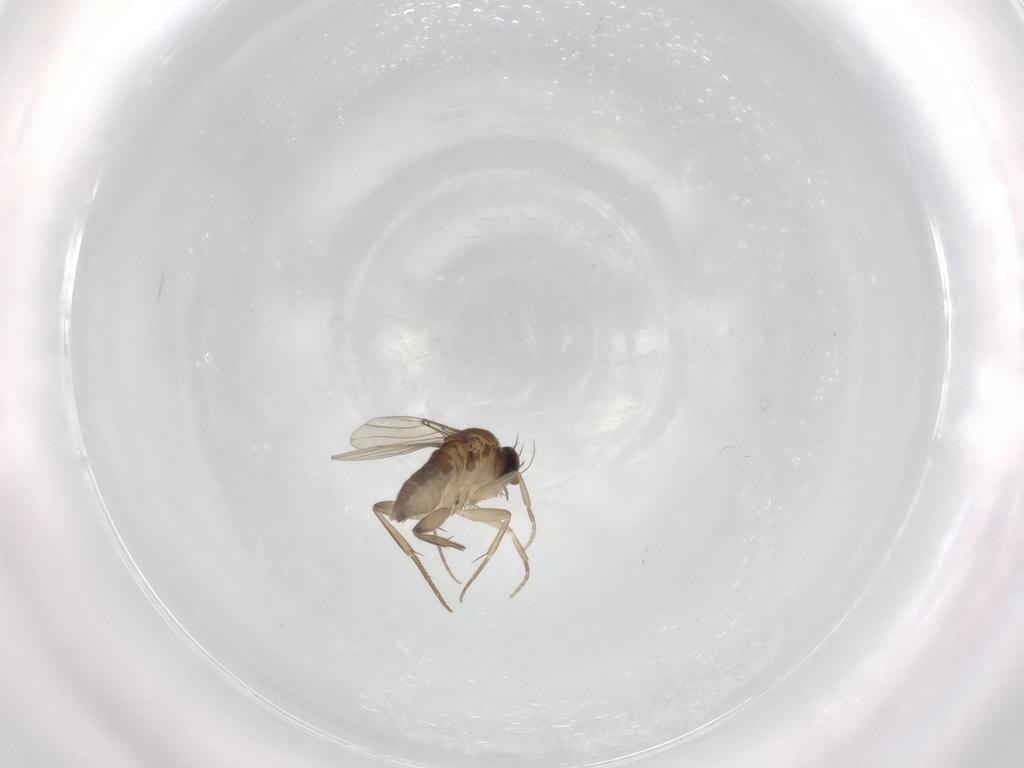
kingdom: Animalia
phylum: Arthropoda
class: Insecta
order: Diptera
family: Phoridae
